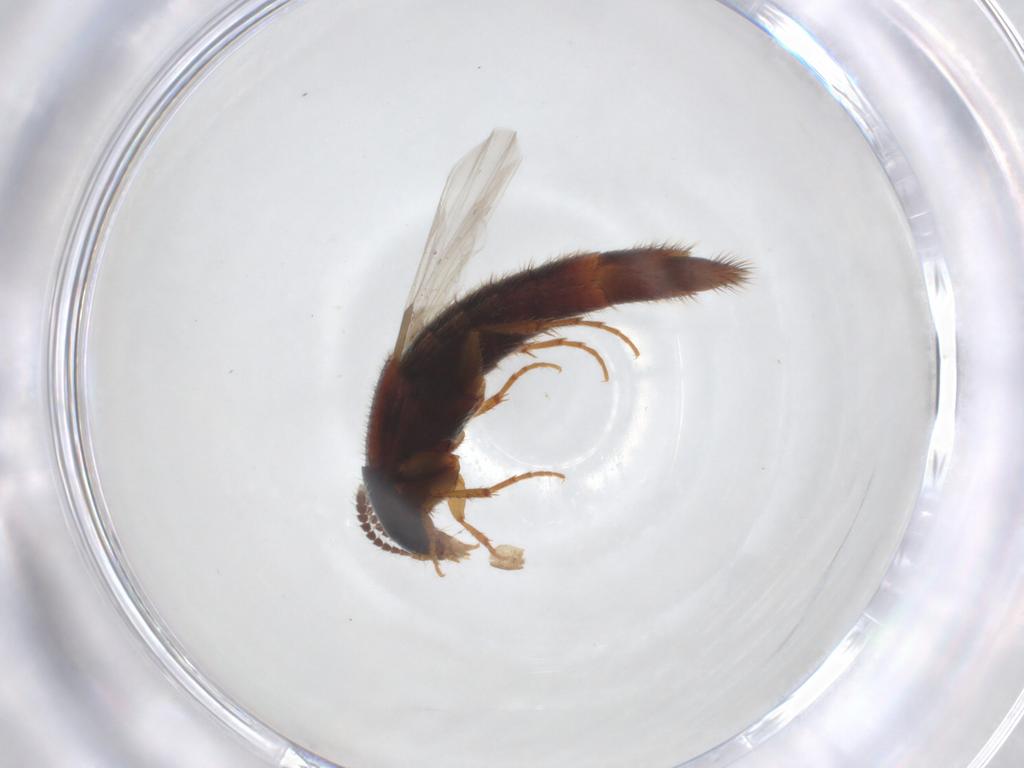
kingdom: Animalia
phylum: Arthropoda
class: Insecta
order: Coleoptera
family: Staphylinidae
